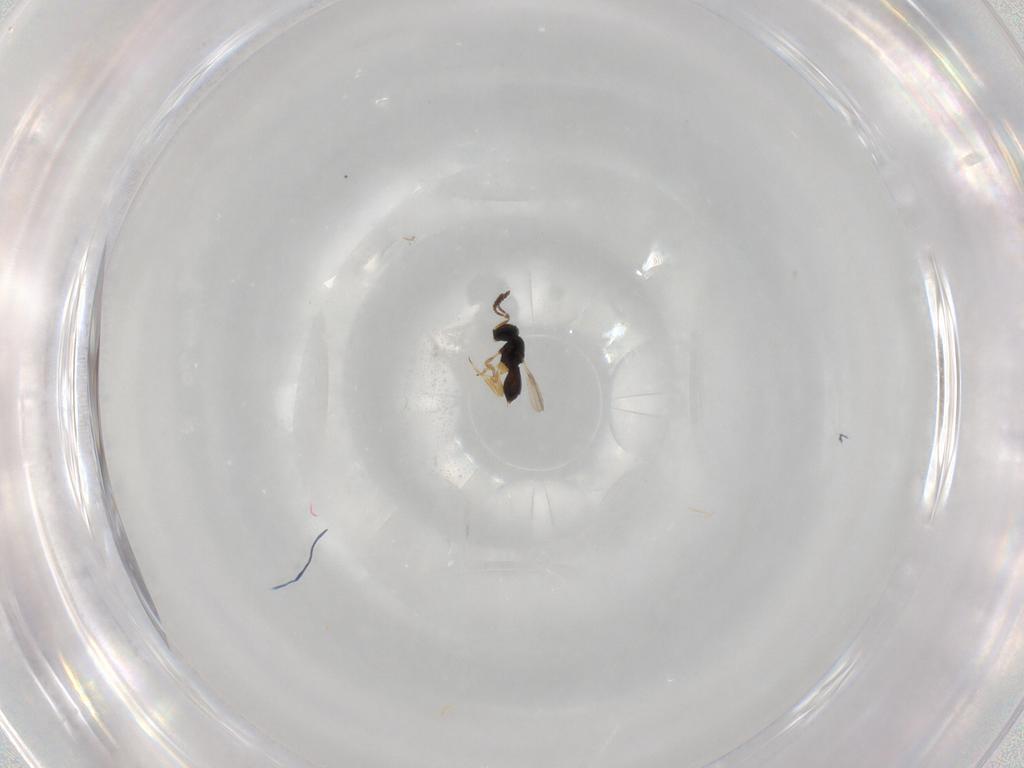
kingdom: Animalia
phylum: Arthropoda
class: Insecta
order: Hymenoptera
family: Scelionidae
